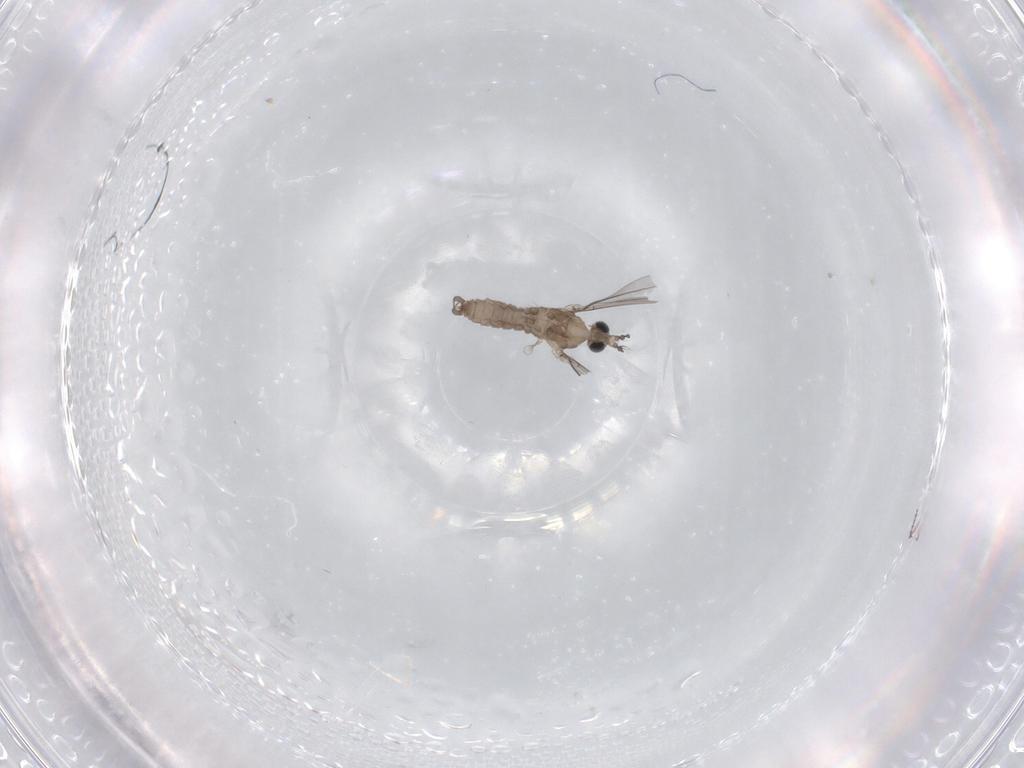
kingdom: Animalia
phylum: Arthropoda
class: Insecta
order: Diptera
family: Cecidomyiidae
